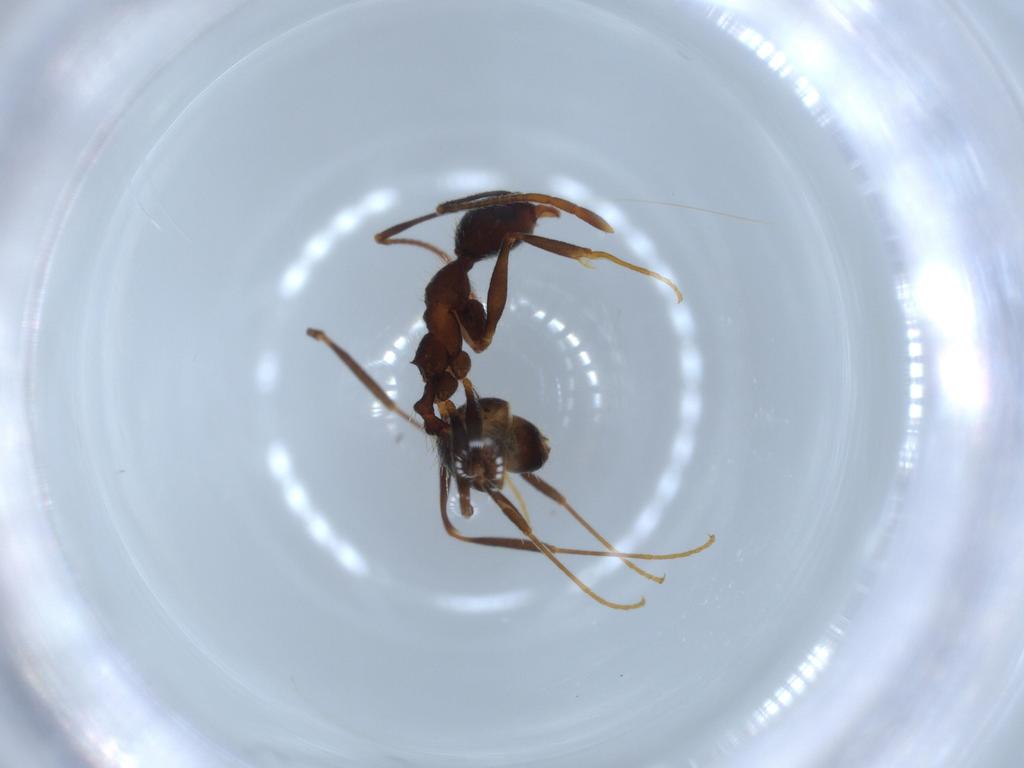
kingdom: Animalia
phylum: Arthropoda
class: Insecta
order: Hymenoptera
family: Formicidae
